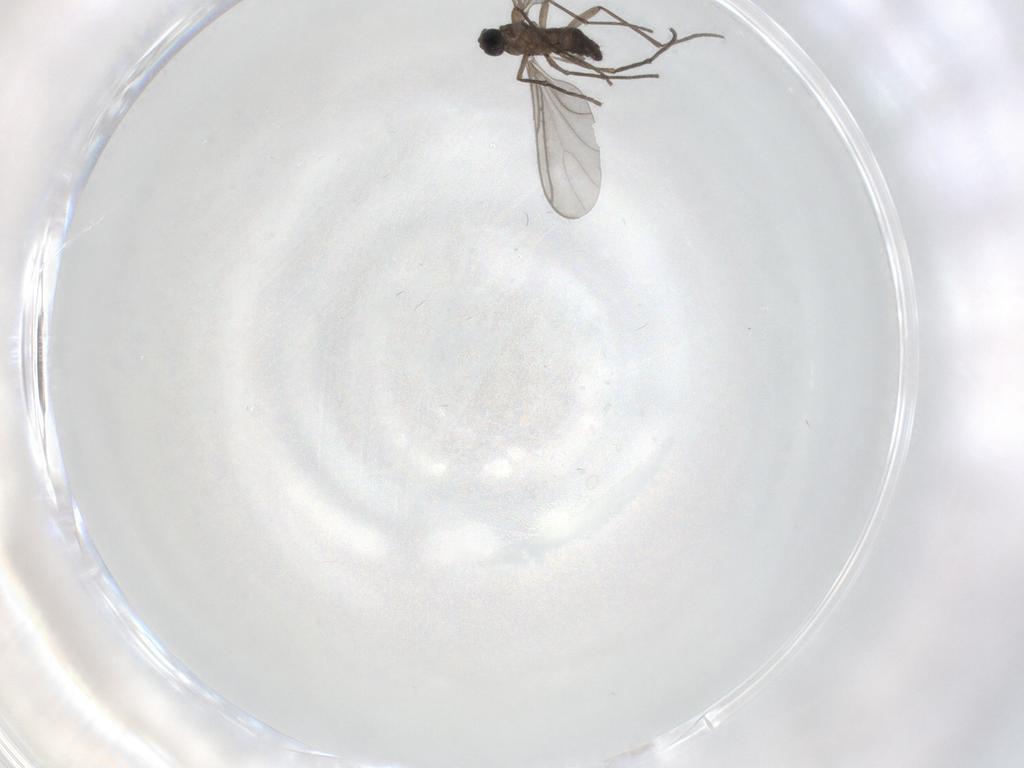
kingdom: Animalia
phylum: Arthropoda
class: Insecta
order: Diptera
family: Sciaridae
